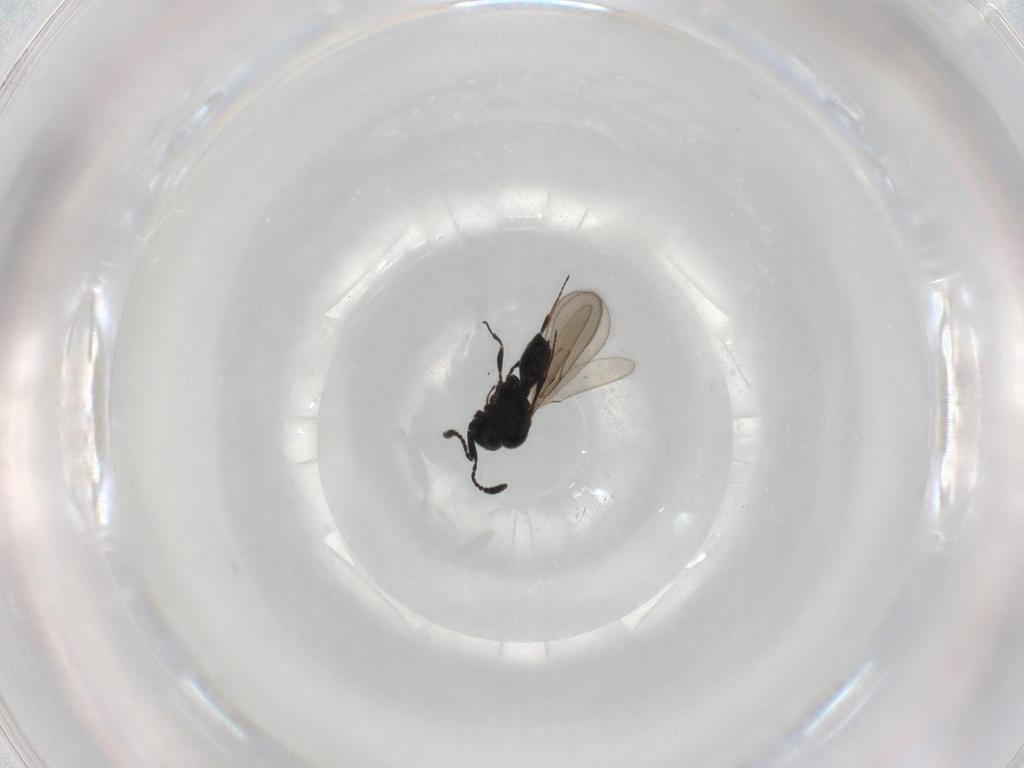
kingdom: Animalia
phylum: Arthropoda
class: Insecta
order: Hymenoptera
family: Scelionidae
